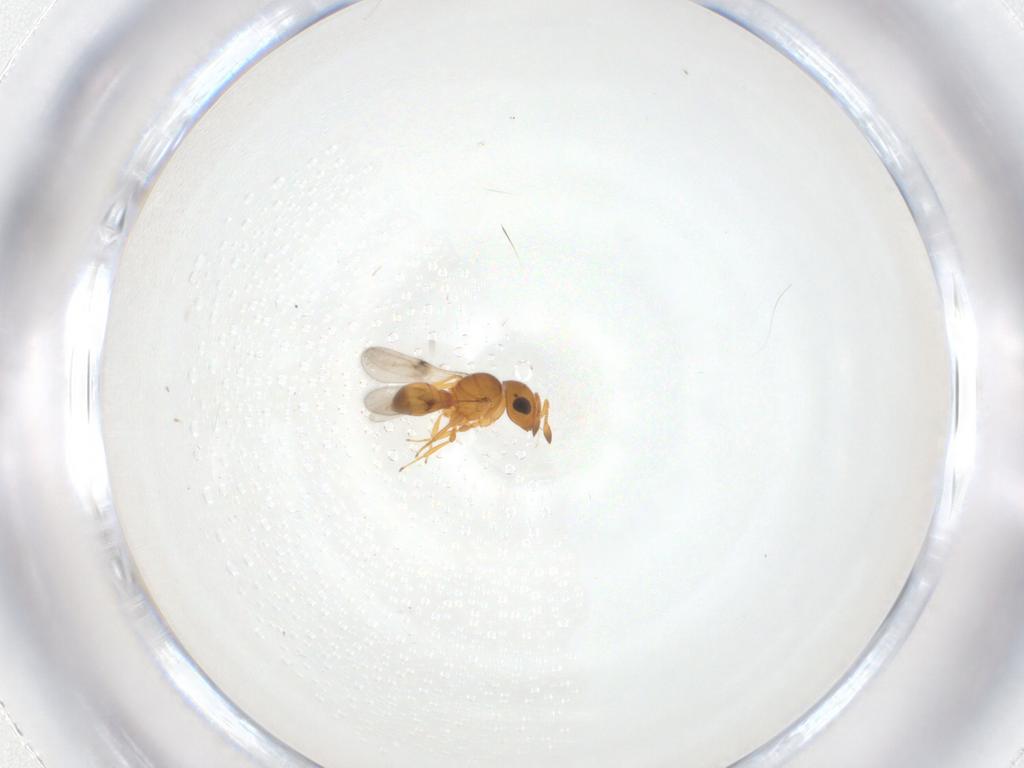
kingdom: Animalia
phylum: Arthropoda
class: Insecta
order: Hymenoptera
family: Scelionidae
